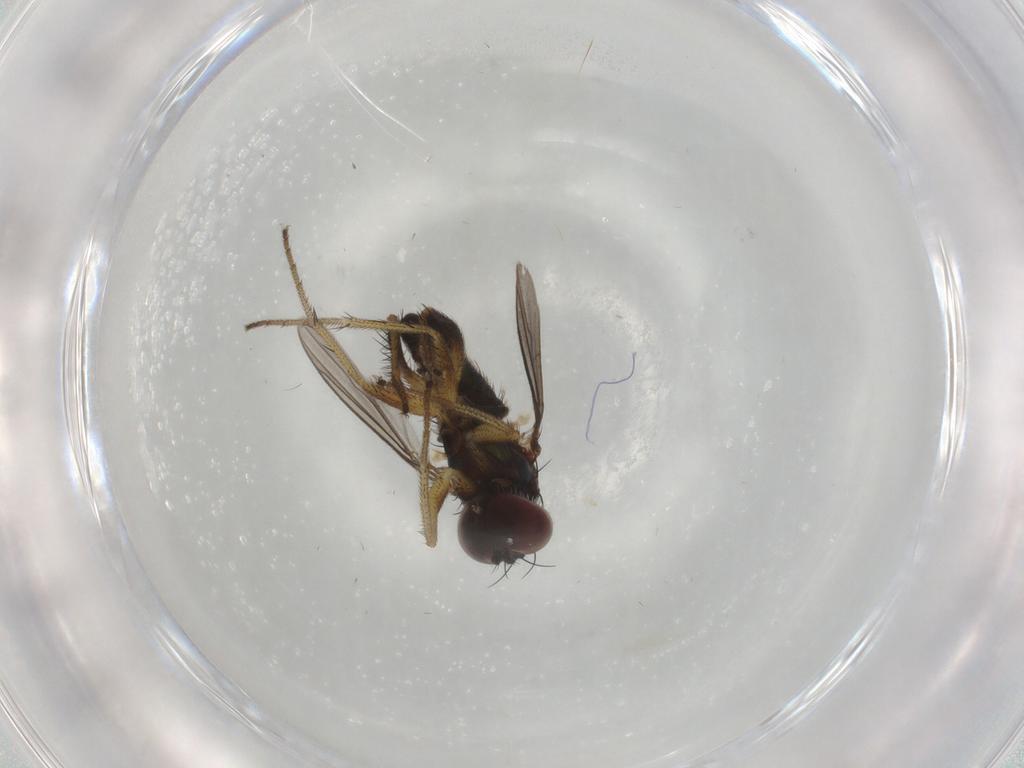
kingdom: Animalia
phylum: Arthropoda
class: Insecta
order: Diptera
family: Dolichopodidae
